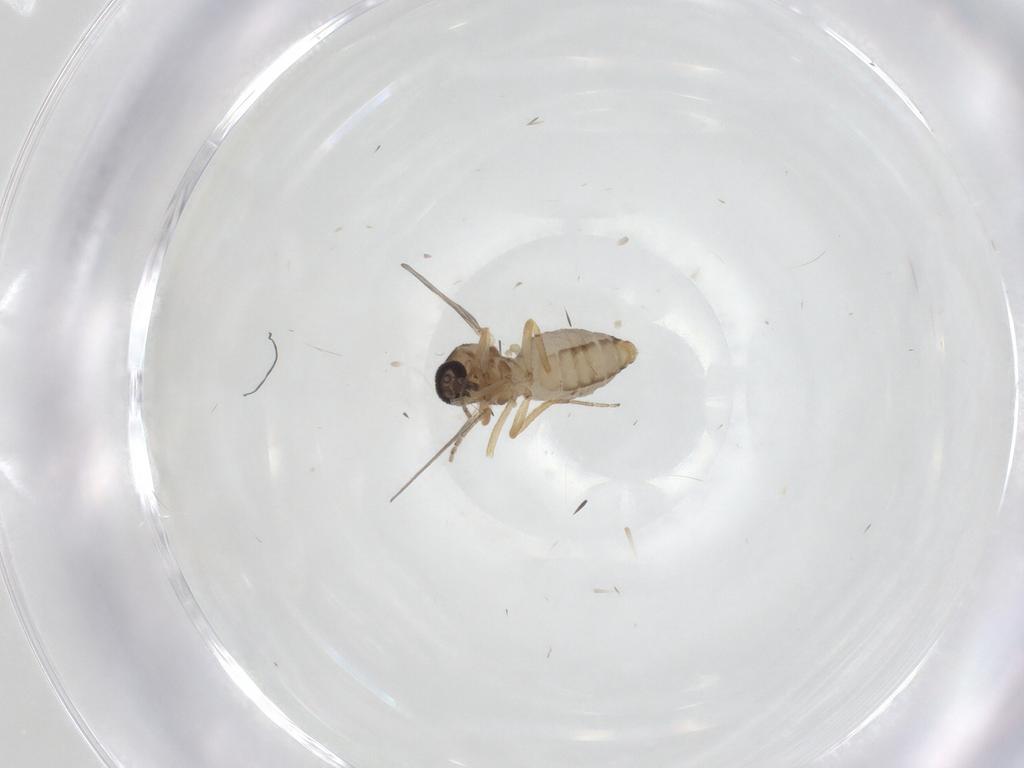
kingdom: Animalia
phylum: Arthropoda
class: Insecta
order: Diptera
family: Ceratopogonidae
